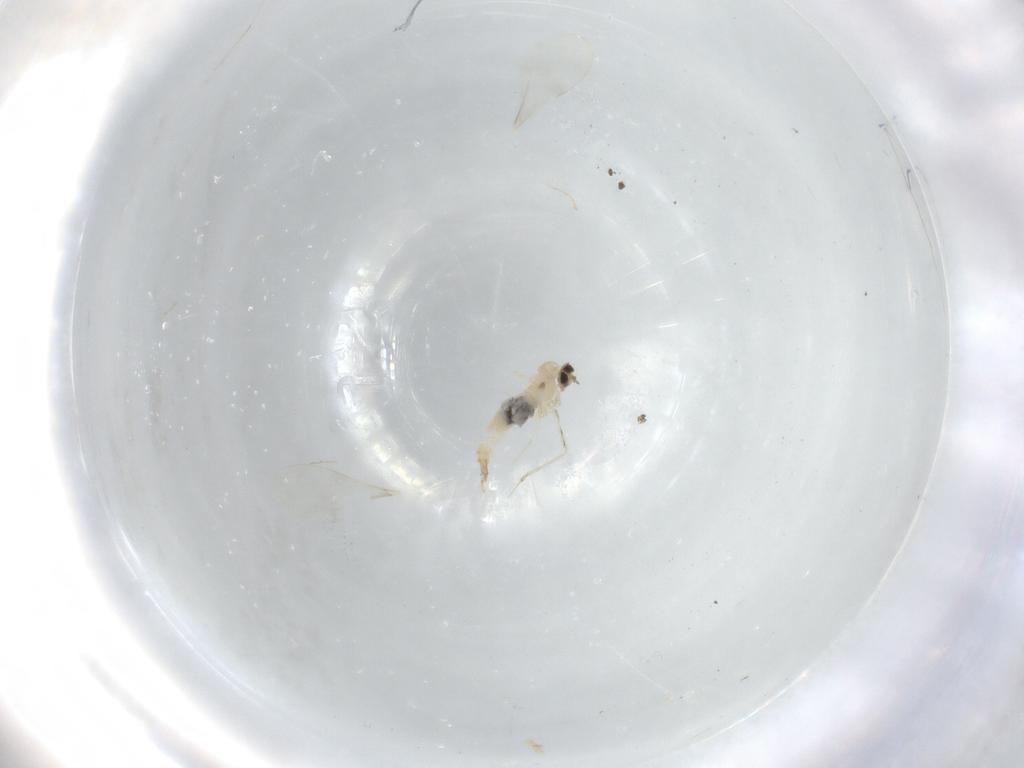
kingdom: Animalia
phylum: Arthropoda
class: Insecta
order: Diptera
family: Cecidomyiidae
